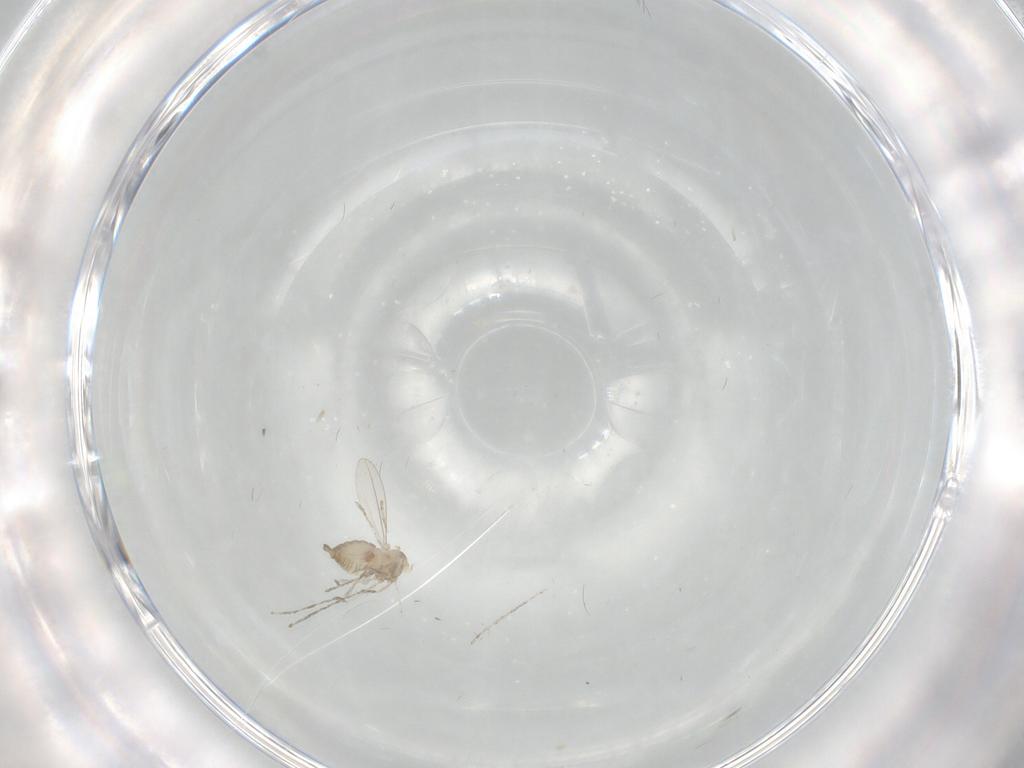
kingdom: Animalia
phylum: Arthropoda
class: Insecta
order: Diptera
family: Cecidomyiidae
